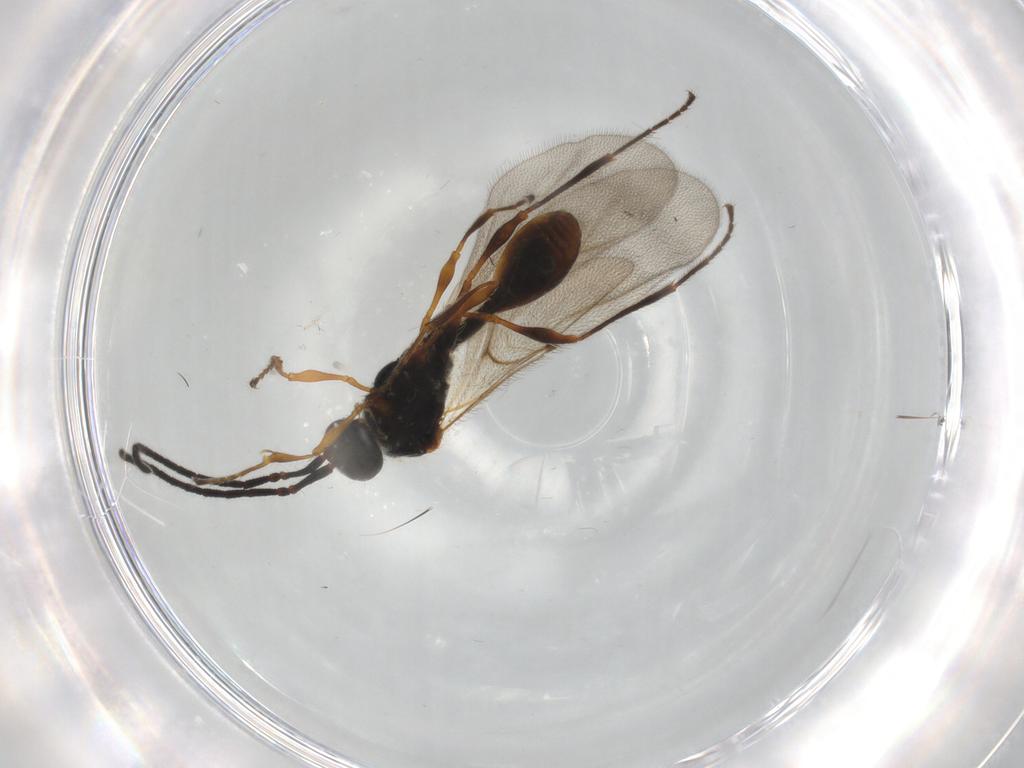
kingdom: Animalia
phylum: Arthropoda
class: Insecta
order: Hymenoptera
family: Diapriidae
